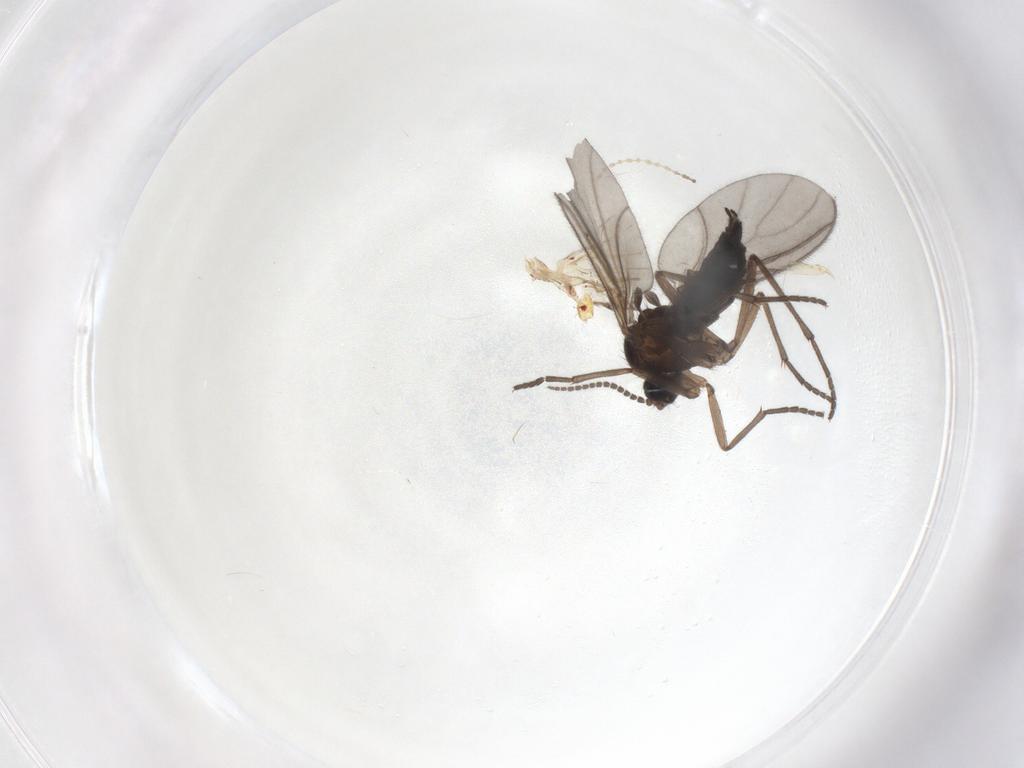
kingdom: Animalia
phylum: Arthropoda
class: Insecta
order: Diptera
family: Sciaridae
